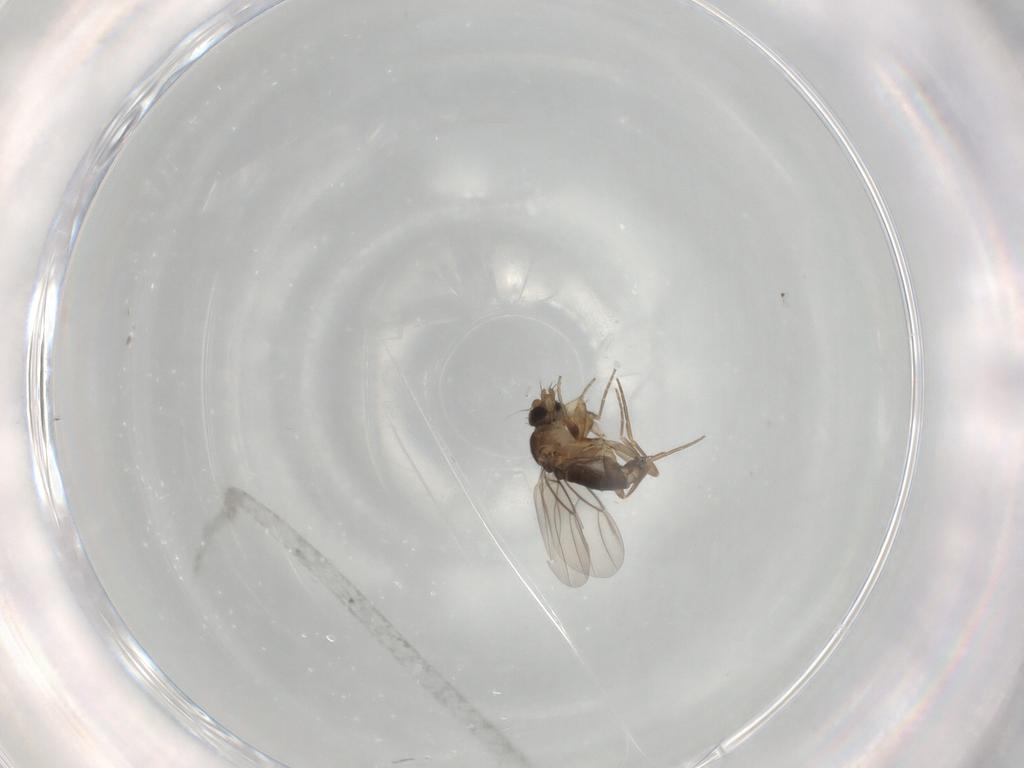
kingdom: Animalia
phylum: Arthropoda
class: Insecta
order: Diptera
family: Phoridae
